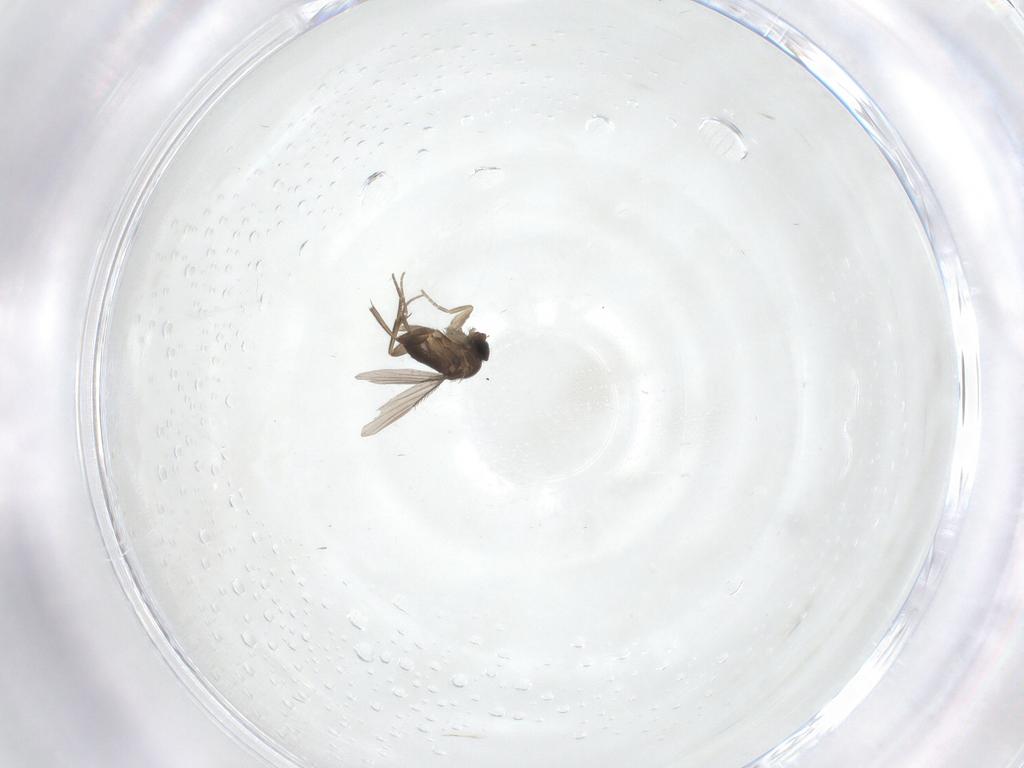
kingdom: Animalia
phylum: Arthropoda
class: Insecta
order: Diptera
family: Phoridae
